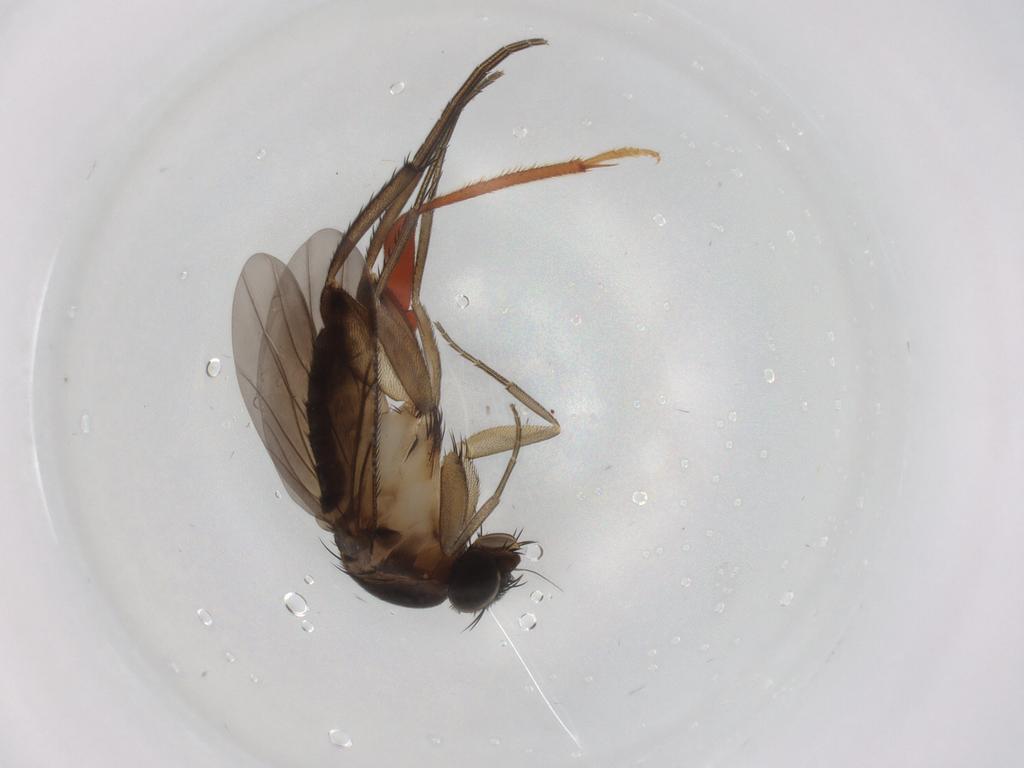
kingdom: Animalia
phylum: Arthropoda
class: Insecta
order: Diptera
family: Phoridae
